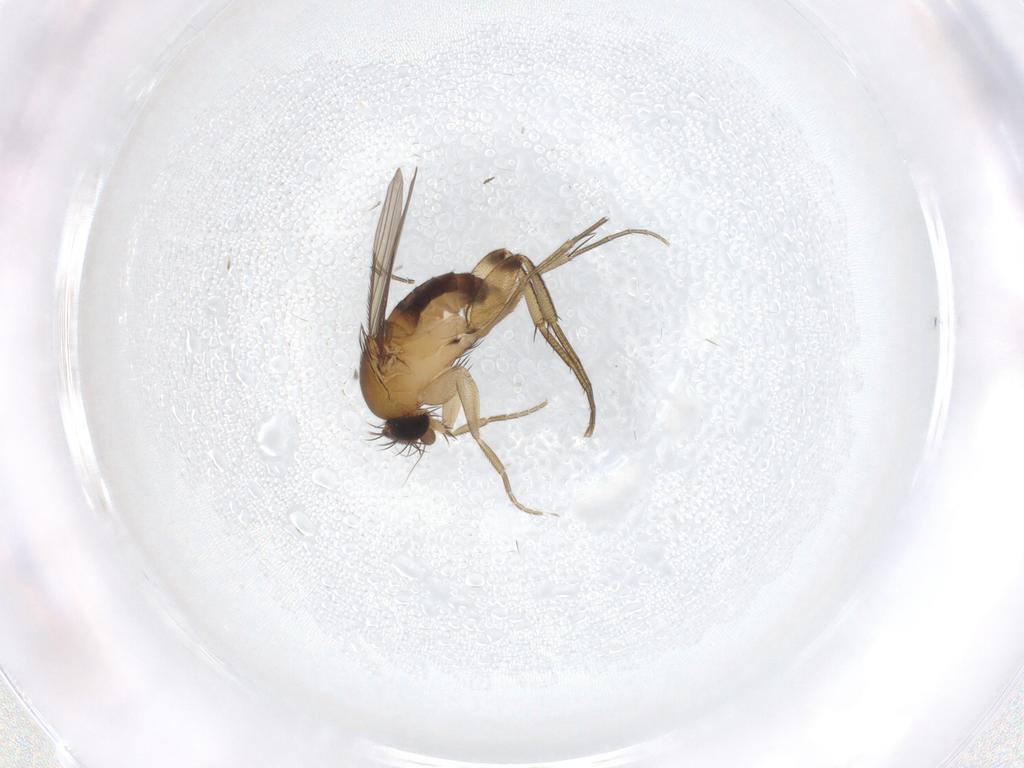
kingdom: Animalia
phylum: Arthropoda
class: Insecta
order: Diptera
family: Phoridae
